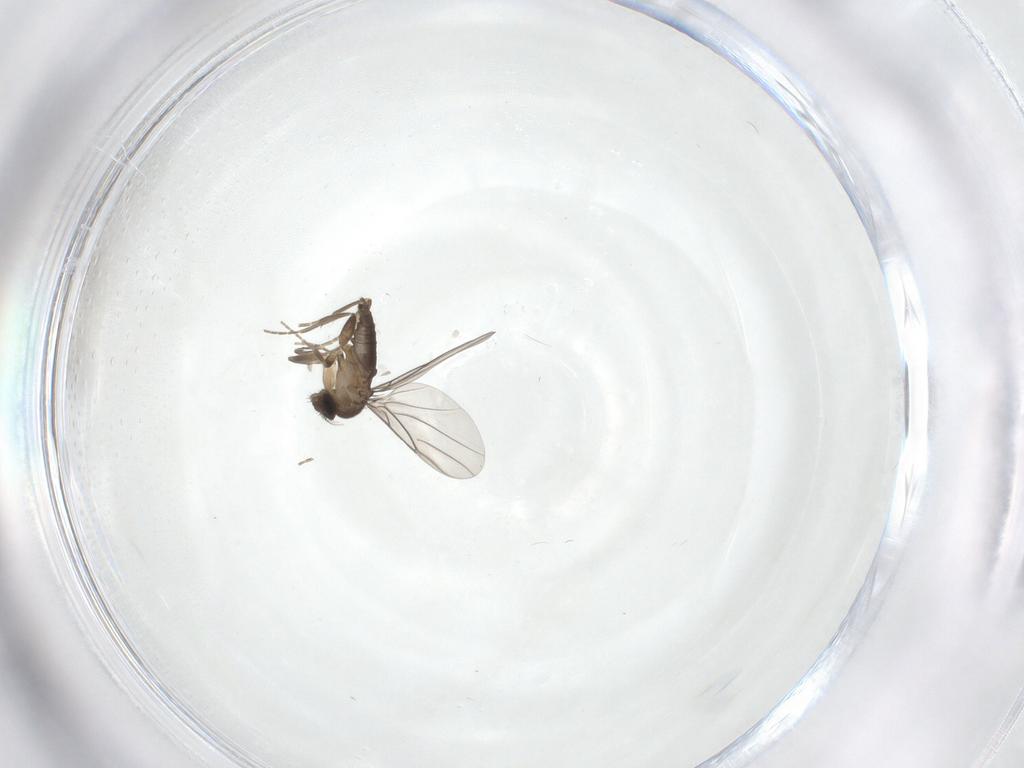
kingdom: Animalia
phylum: Arthropoda
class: Insecta
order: Diptera
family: Phoridae
